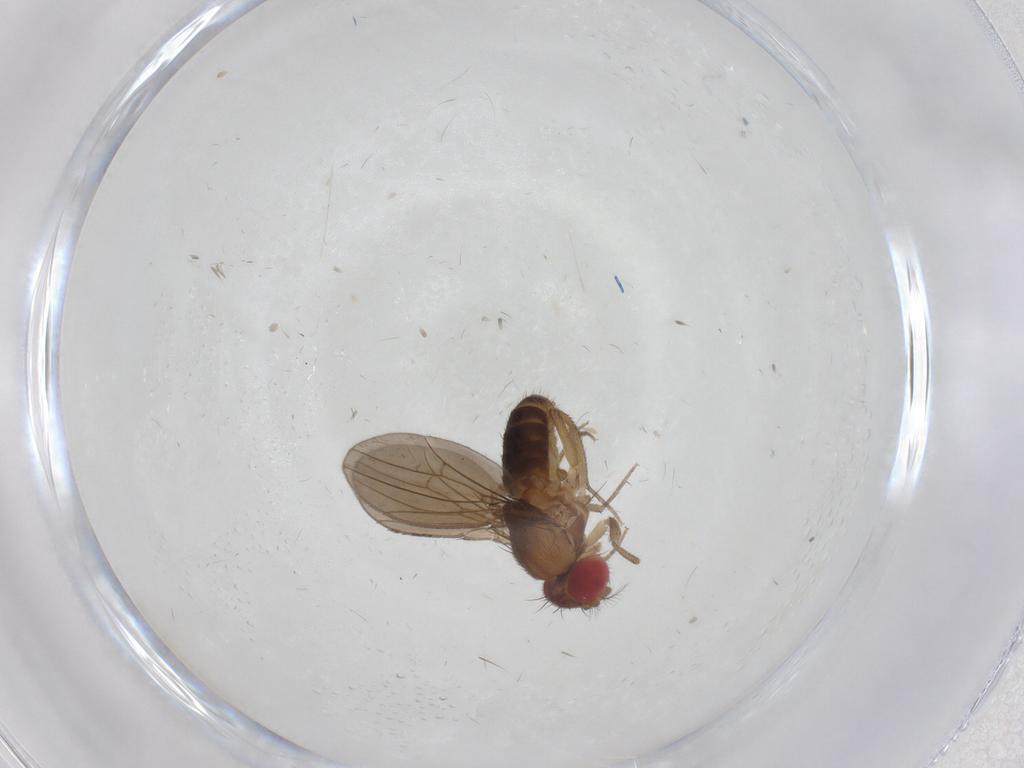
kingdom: Animalia
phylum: Arthropoda
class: Insecta
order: Diptera
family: Drosophilidae
